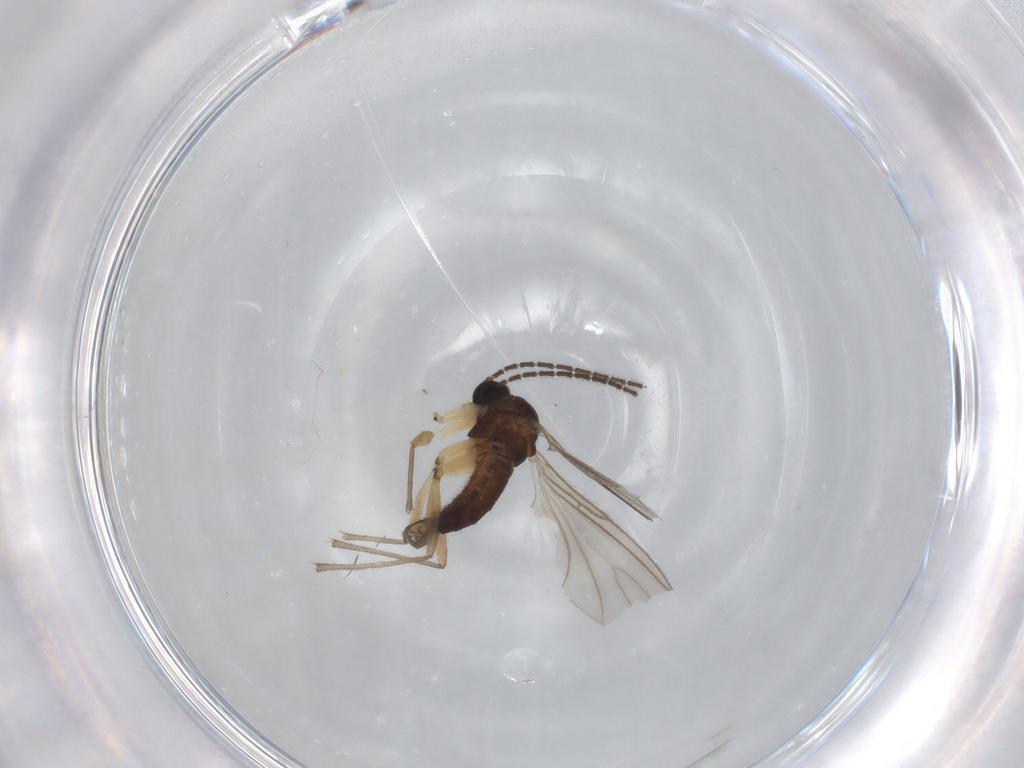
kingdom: Animalia
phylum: Arthropoda
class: Insecta
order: Diptera
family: Sciaridae
